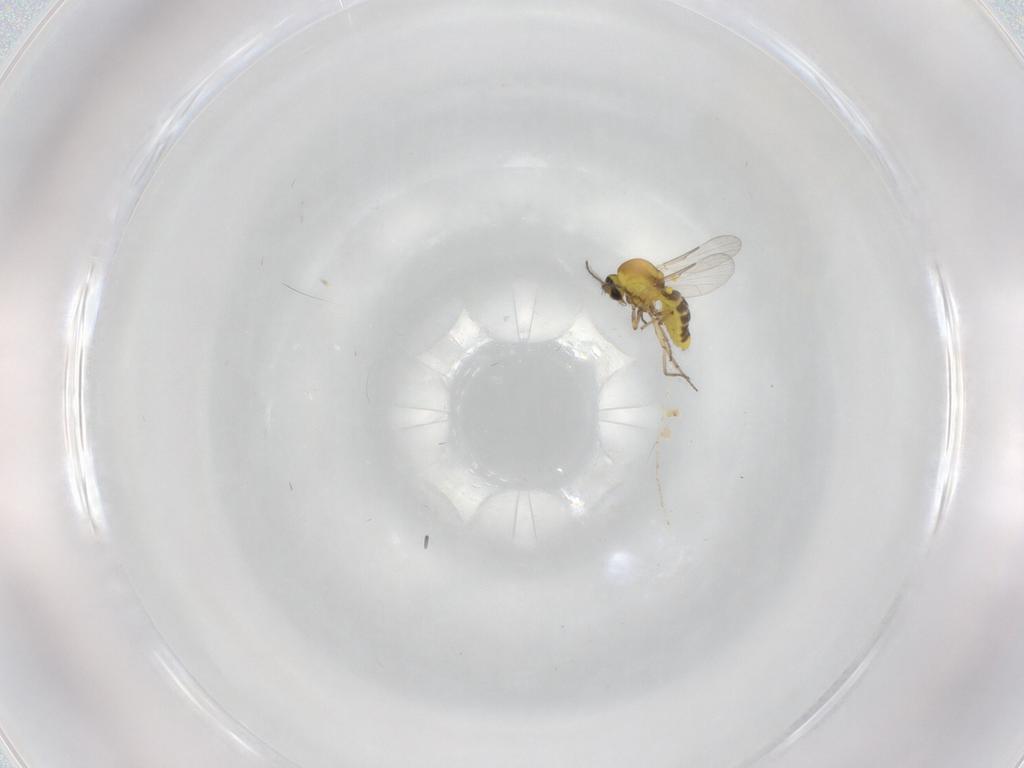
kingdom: Animalia
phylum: Arthropoda
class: Insecta
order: Diptera
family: Ceratopogonidae
